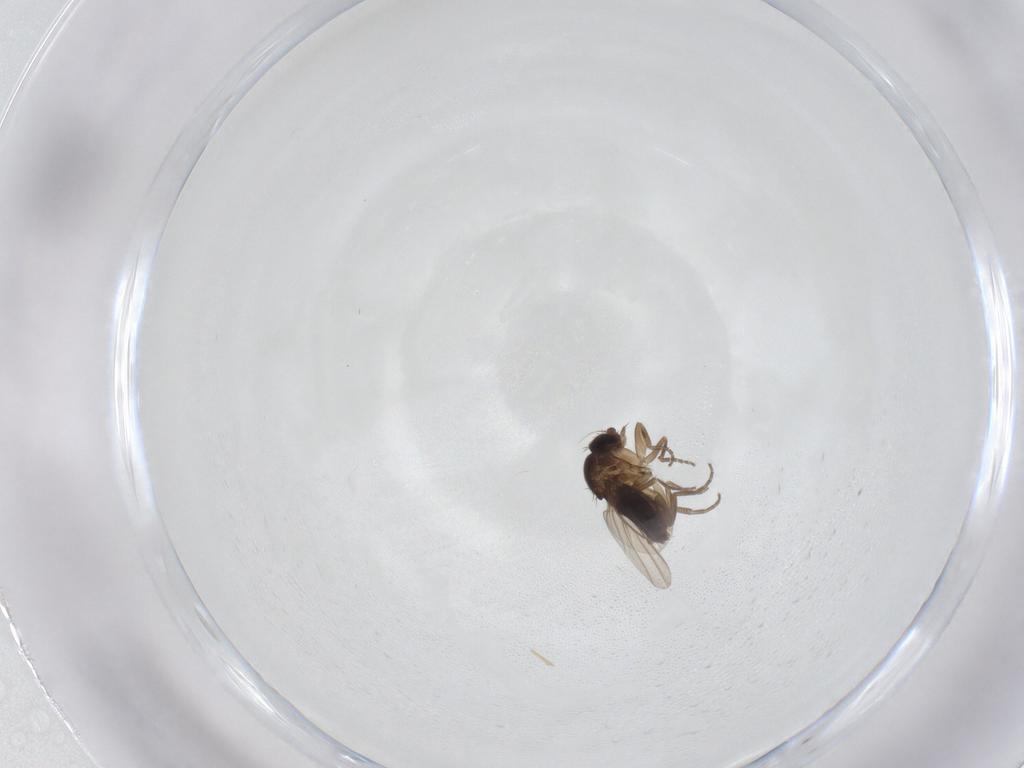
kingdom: Animalia
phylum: Arthropoda
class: Insecta
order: Diptera
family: Phoridae
